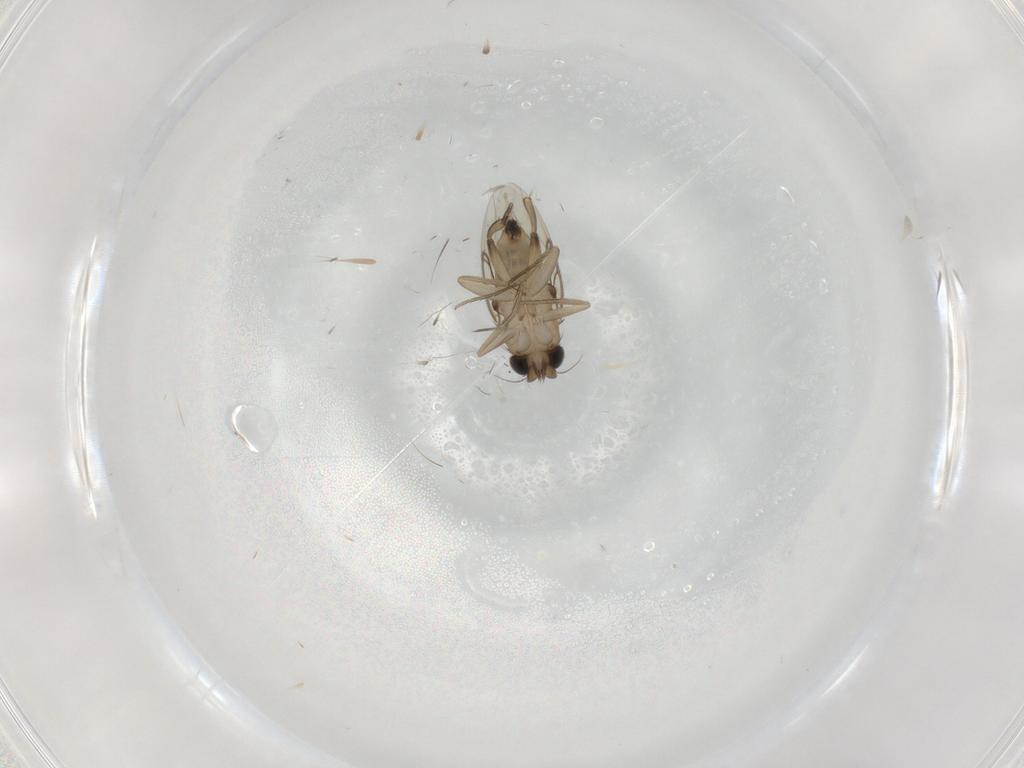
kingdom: Animalia
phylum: Arthropoda
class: Insecta
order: Diptera
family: Phoridae
